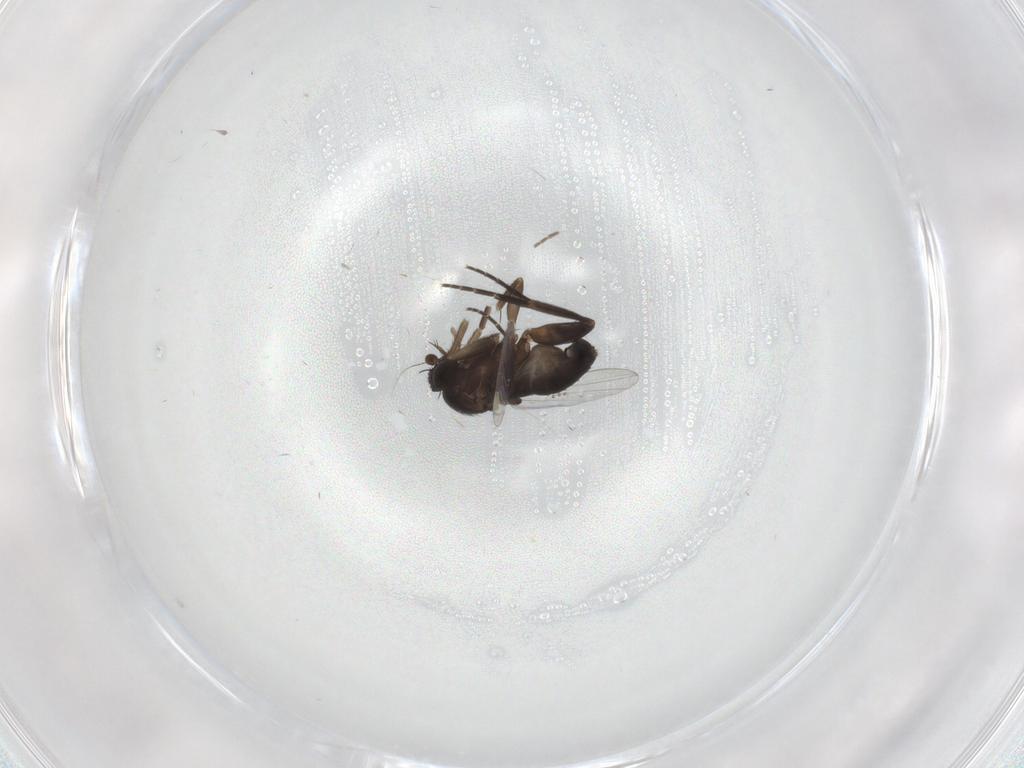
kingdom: Animalia
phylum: Arthropoda
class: Insecta
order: Diptera
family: Phoridae
